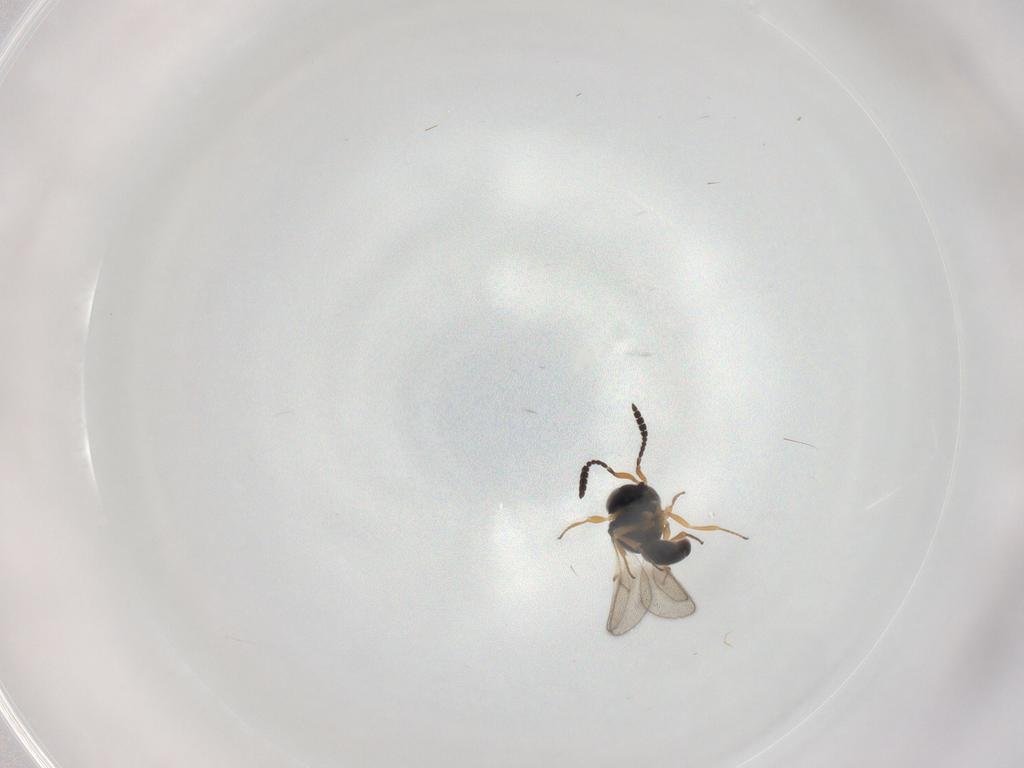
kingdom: Animalia
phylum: Arthropoda
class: Insecta
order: Hymenoptera
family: Scelionidae
